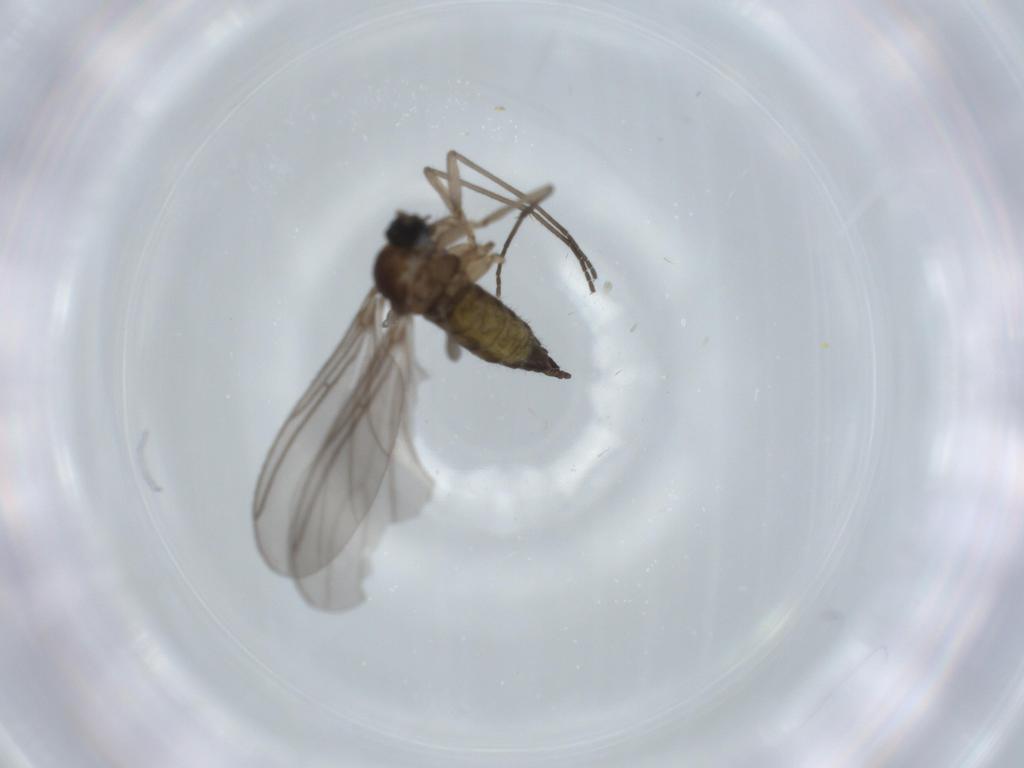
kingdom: Animalia
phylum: Arthropoda
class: Insecta
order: Diptera
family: Sciaridae
